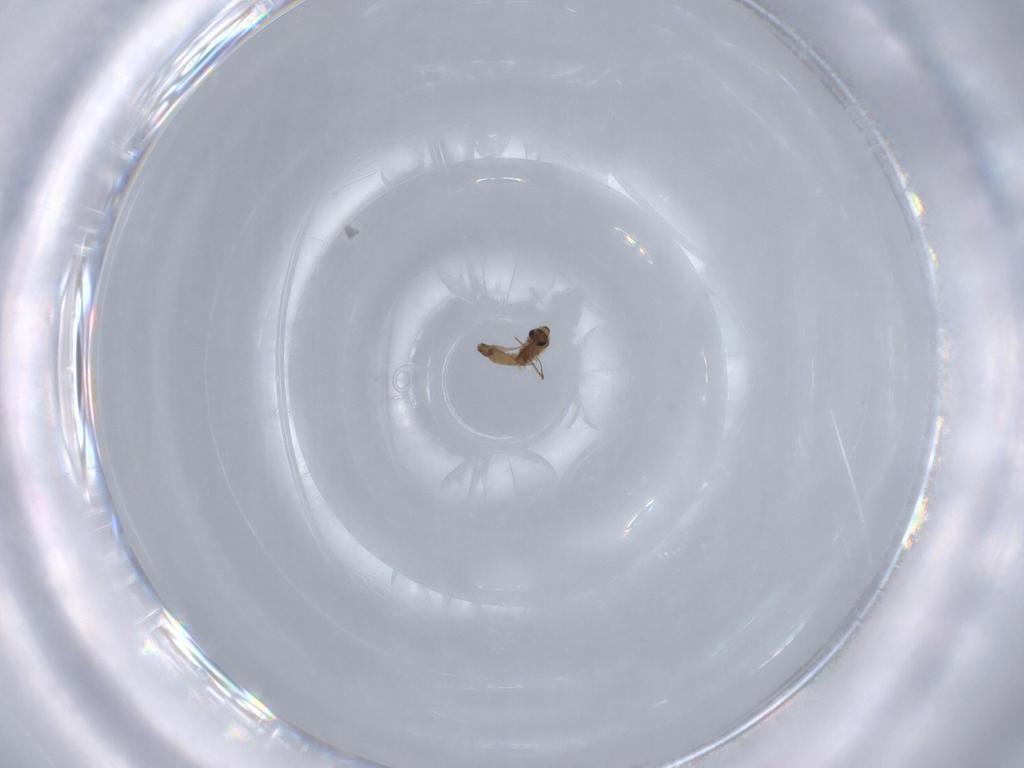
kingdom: Animalia
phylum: Arthropoda
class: Insecta
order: Diptera
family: Chironomidae
